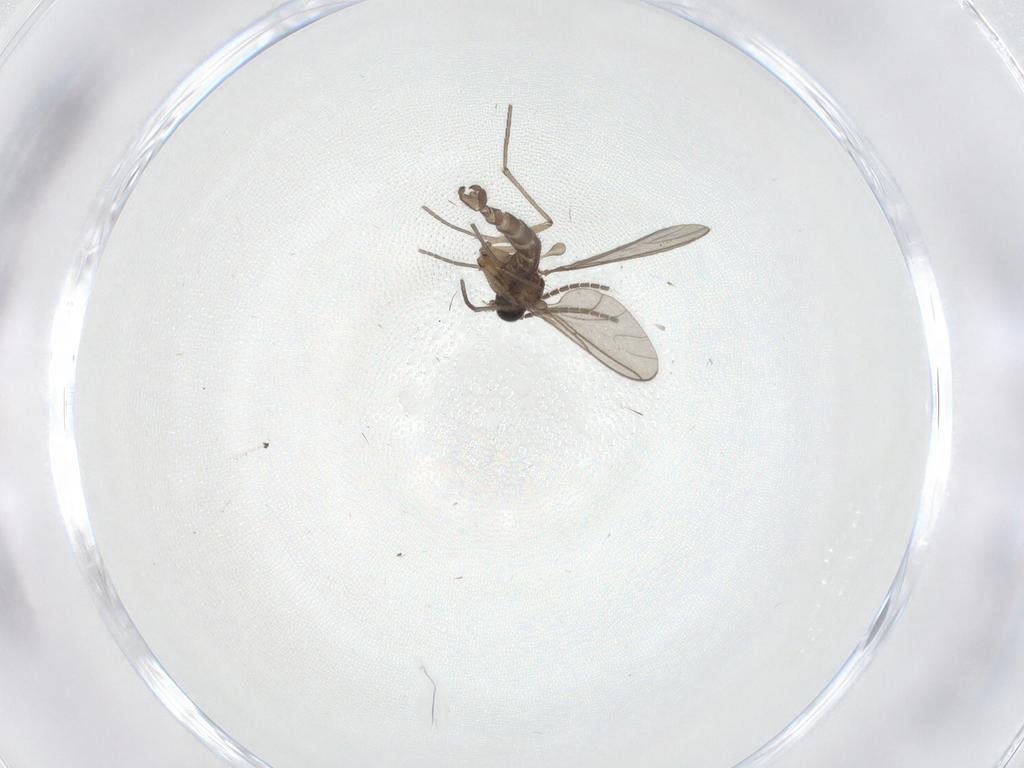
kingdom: Animalia
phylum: Arthropoda
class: Insecta
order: Diptera
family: Sciaridae
